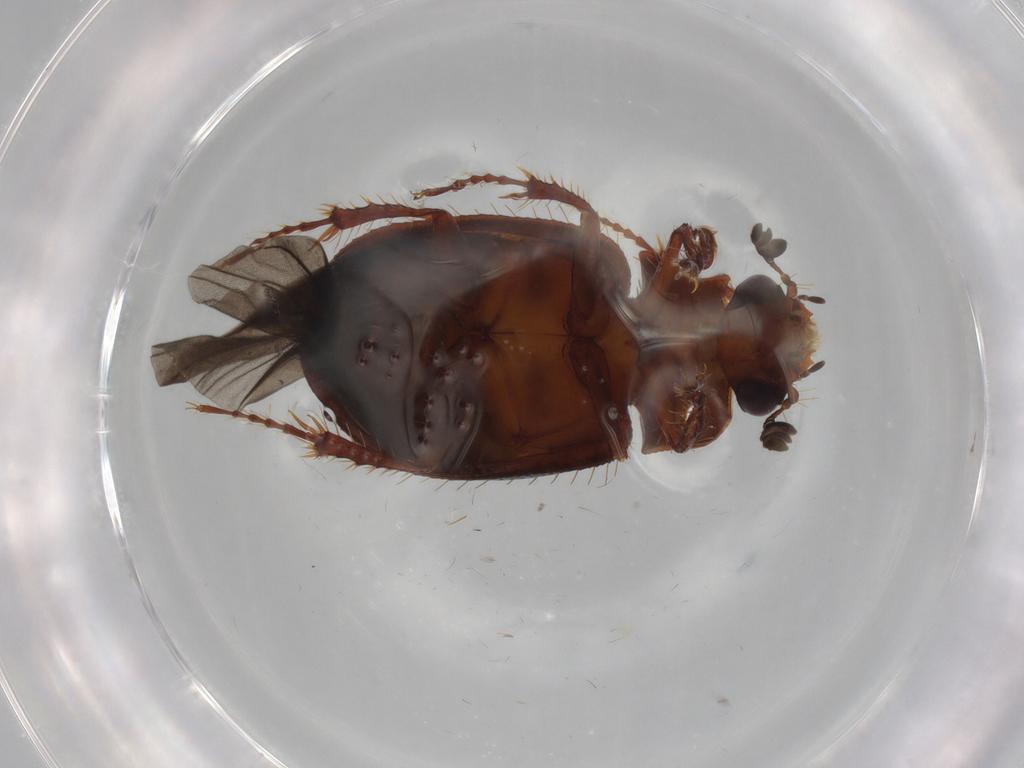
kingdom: Animalia
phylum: Arthropoda
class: Insecta
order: Coleoptera
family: Hybosoridae
